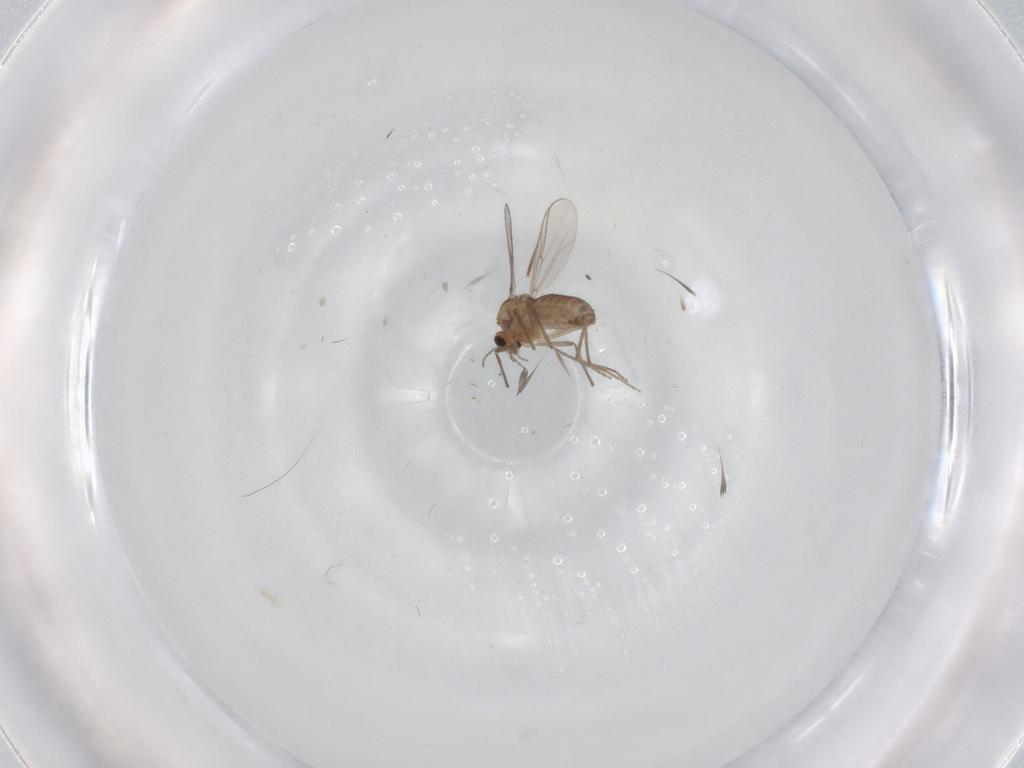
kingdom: Animalia
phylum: Arthropoda
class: Insecta
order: Diptera
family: Chironomidae
